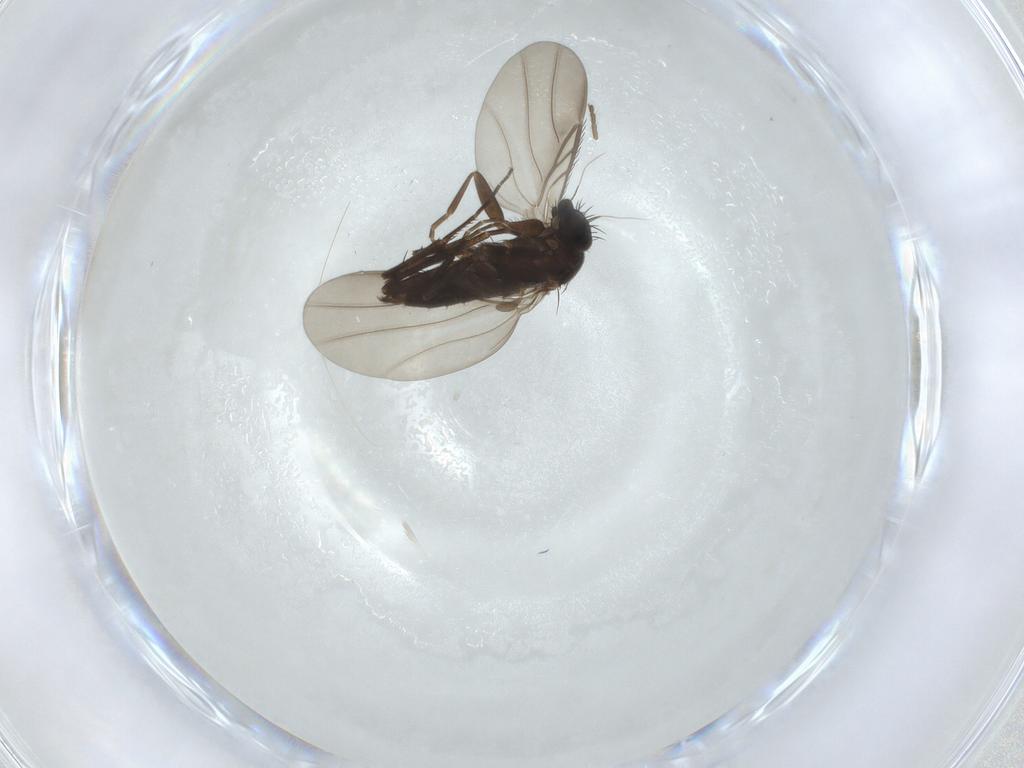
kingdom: Animalia
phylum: Arthropoda
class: Insecta
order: Diptera
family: Phoridae
